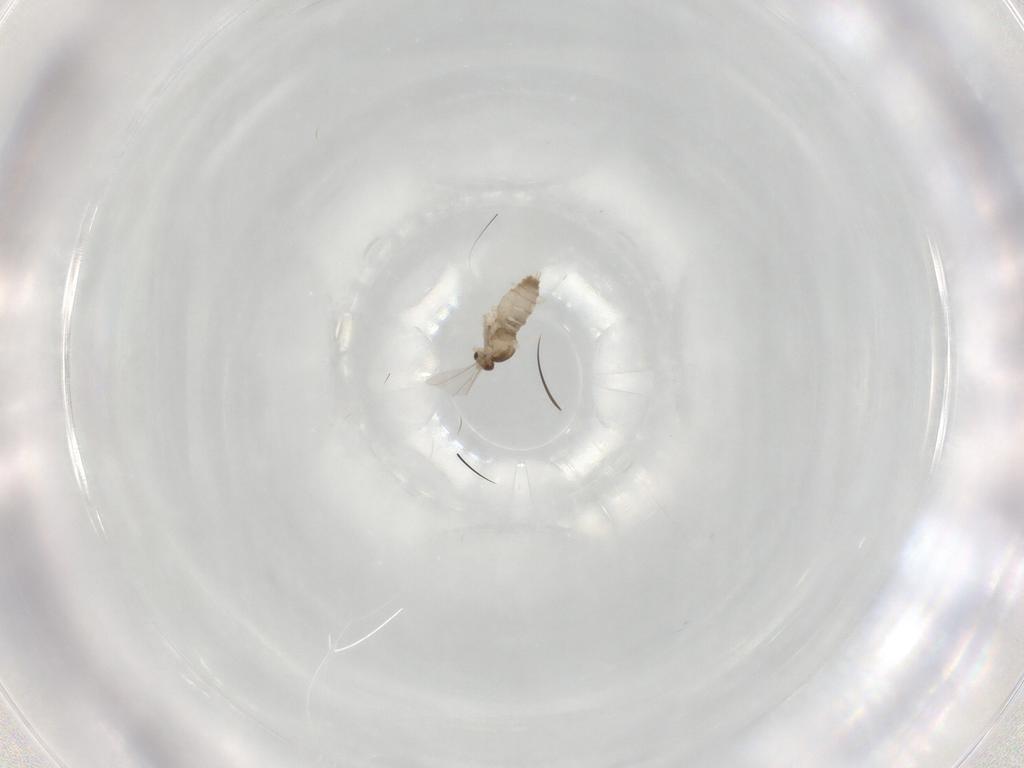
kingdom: Animalia
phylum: Arthropoda
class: Insecta
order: Diptera
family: Cecidomyiidae
